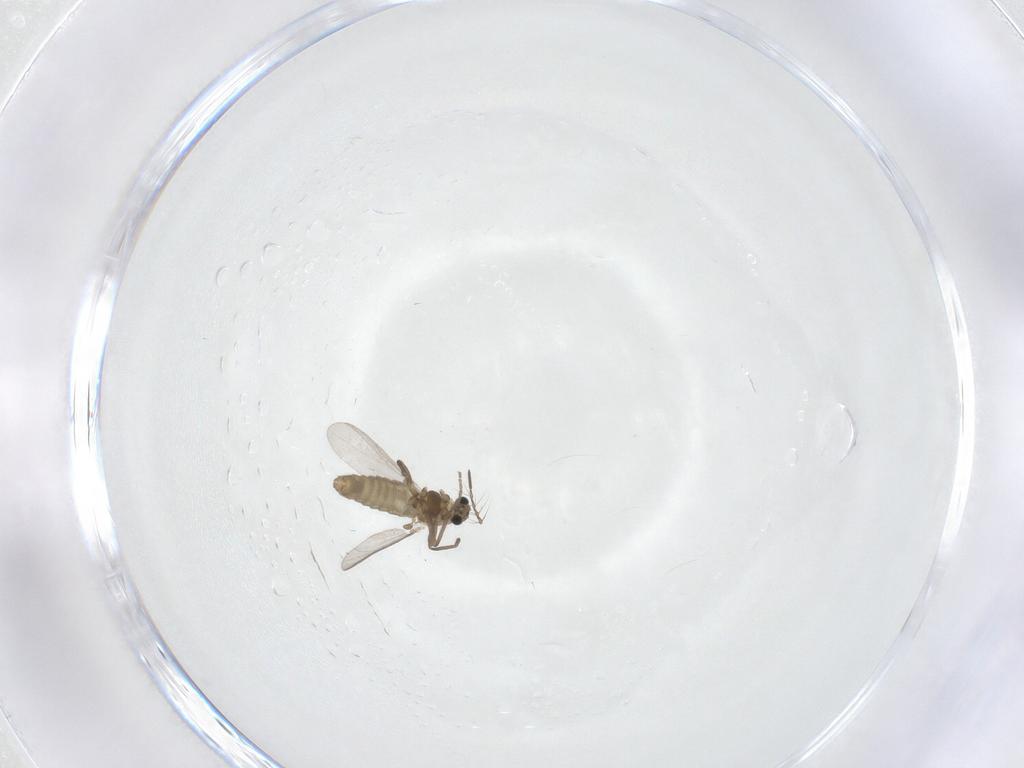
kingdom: Animalia
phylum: Arthropoda
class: Insecta
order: Diptera
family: Chironomidae
